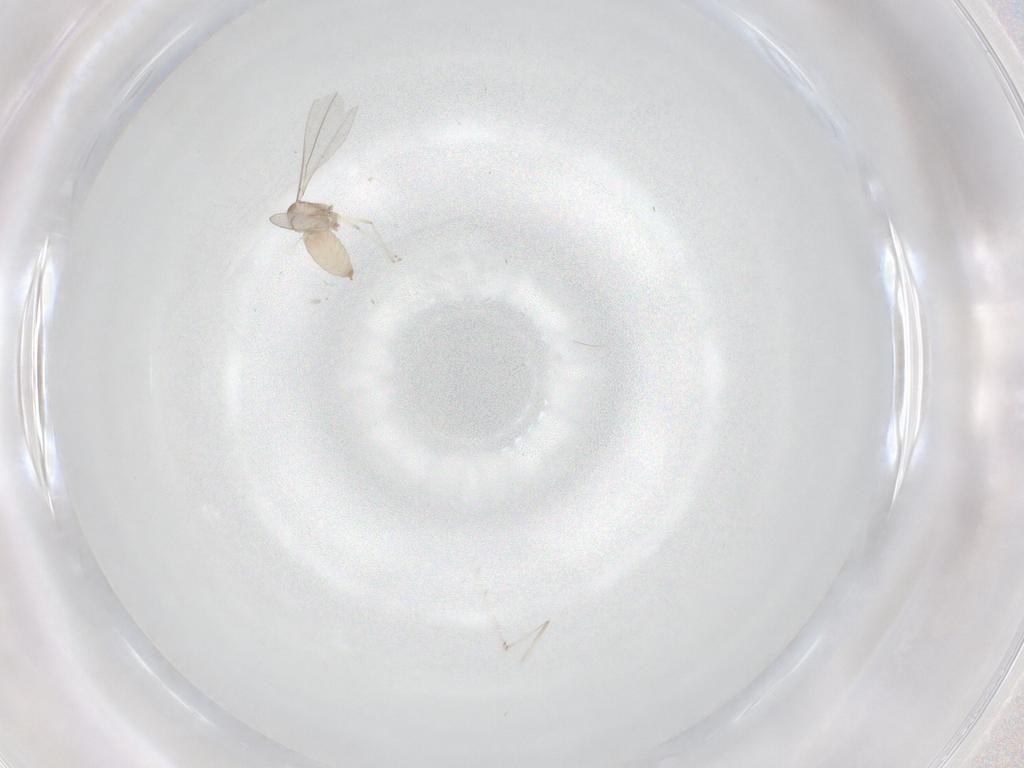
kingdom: Animalia
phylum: Arthropoda
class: Insecta
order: Diptera
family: Cecidomyiidae
